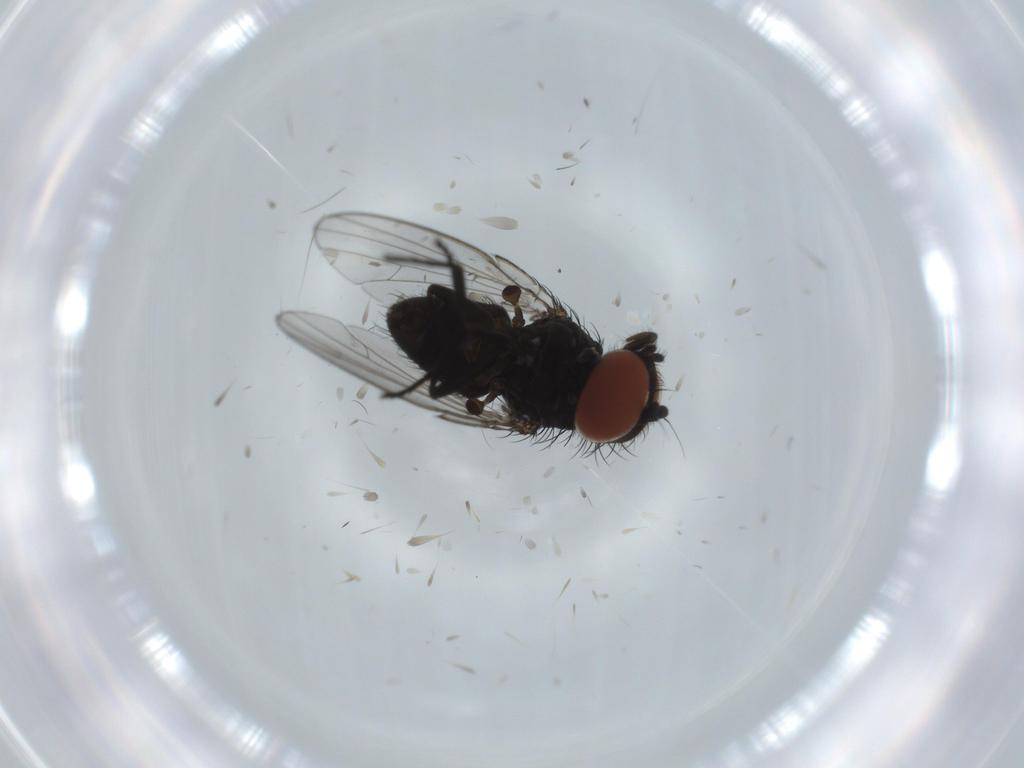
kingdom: Animalia
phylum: Arthropoda
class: Insecta
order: Diptera
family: Milichiidae
